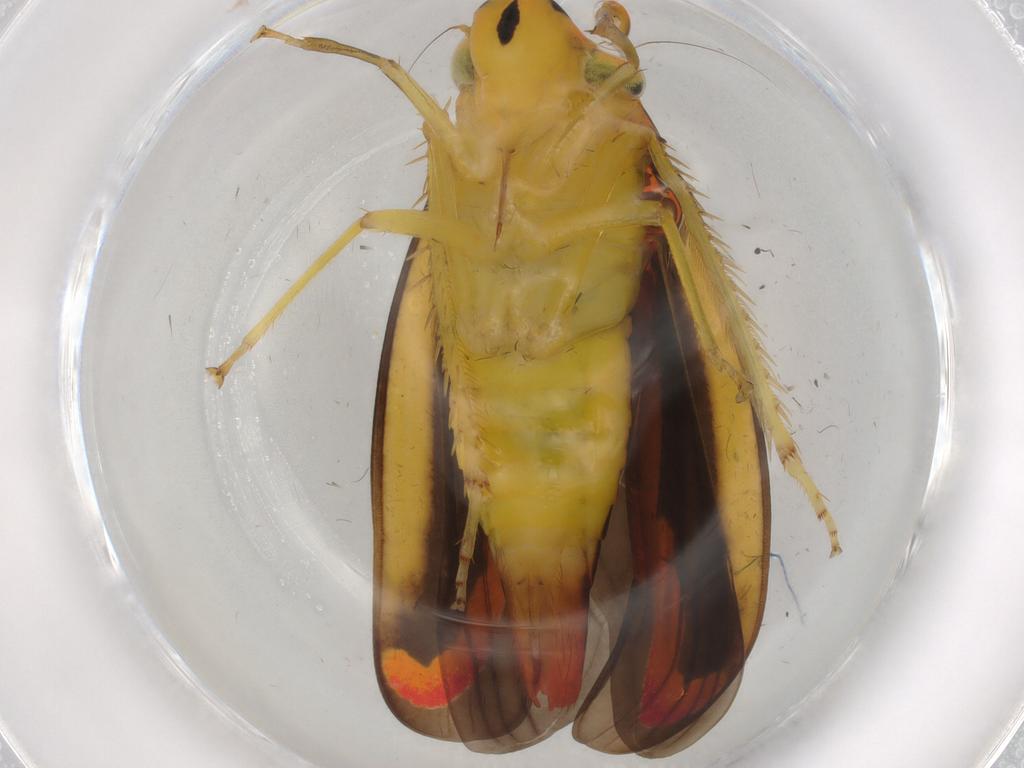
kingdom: Animalia
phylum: Arthropoda
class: Insecta
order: Hemiptera
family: Cicadellidae
